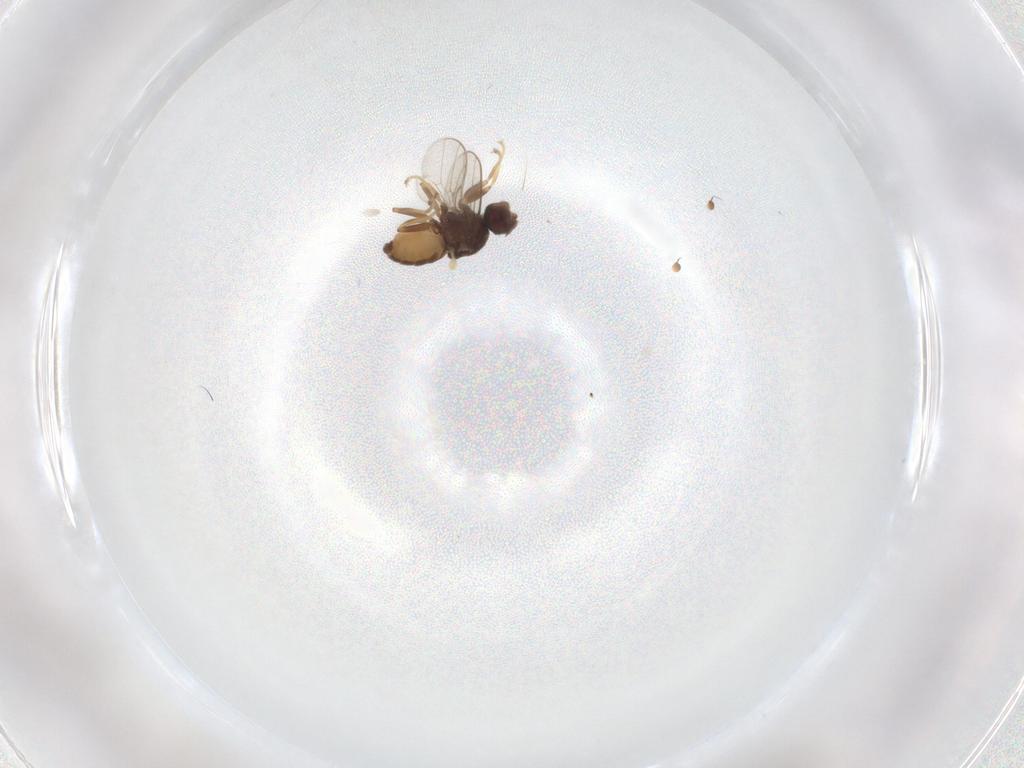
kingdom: Animalia
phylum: Arthropoda
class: Insecta
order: Diptera
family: Chloropidae
